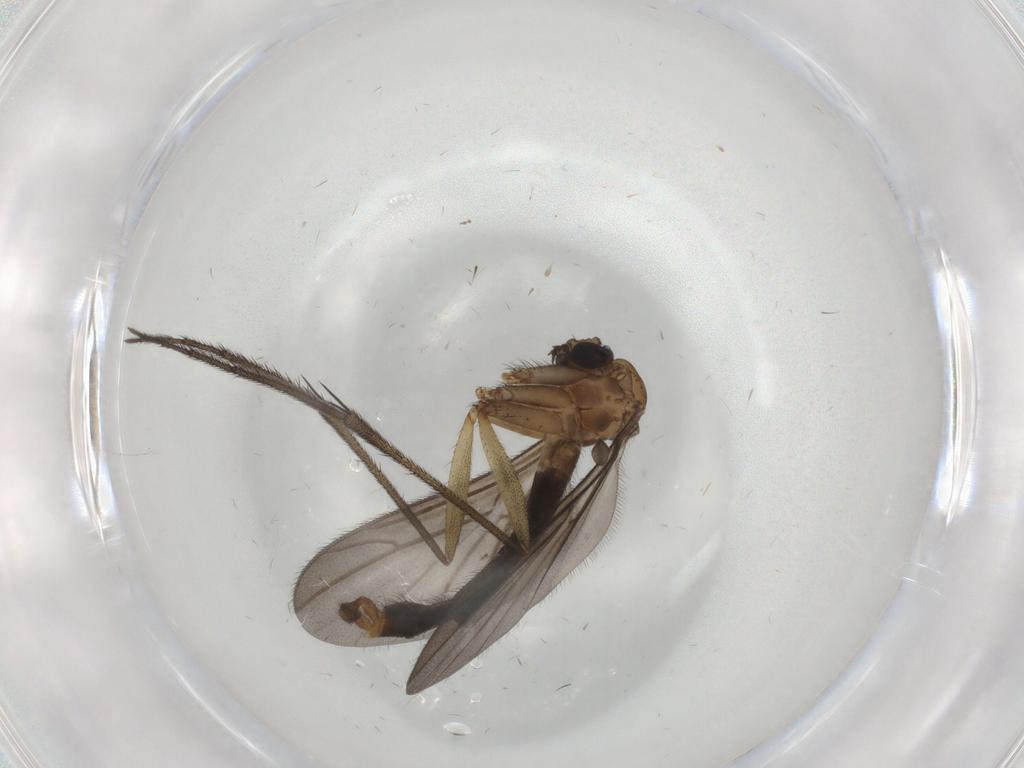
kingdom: Animalia
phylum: Arthropoda
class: Insecta
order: Diptera
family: Ditomyiidae
